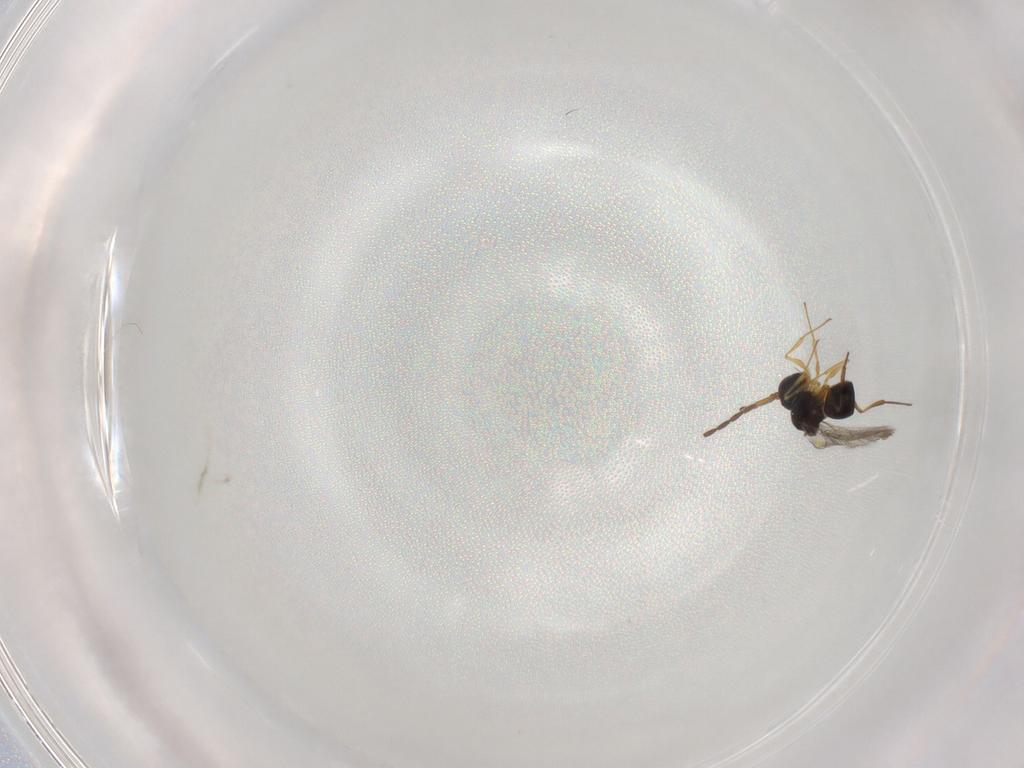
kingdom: Animalia
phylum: Arthropoda
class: Insecta
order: Hymenoptera
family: Figitidae
